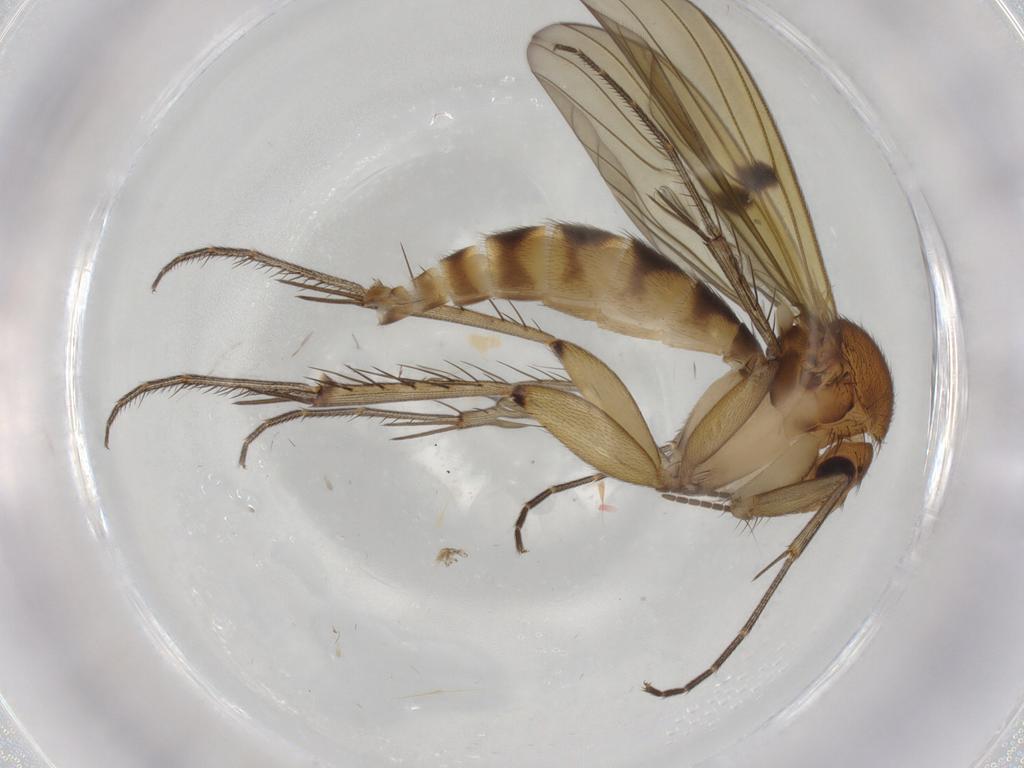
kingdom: Animalia
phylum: Arthropoda
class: Insecta
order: Diptera
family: Mycetophilidae
